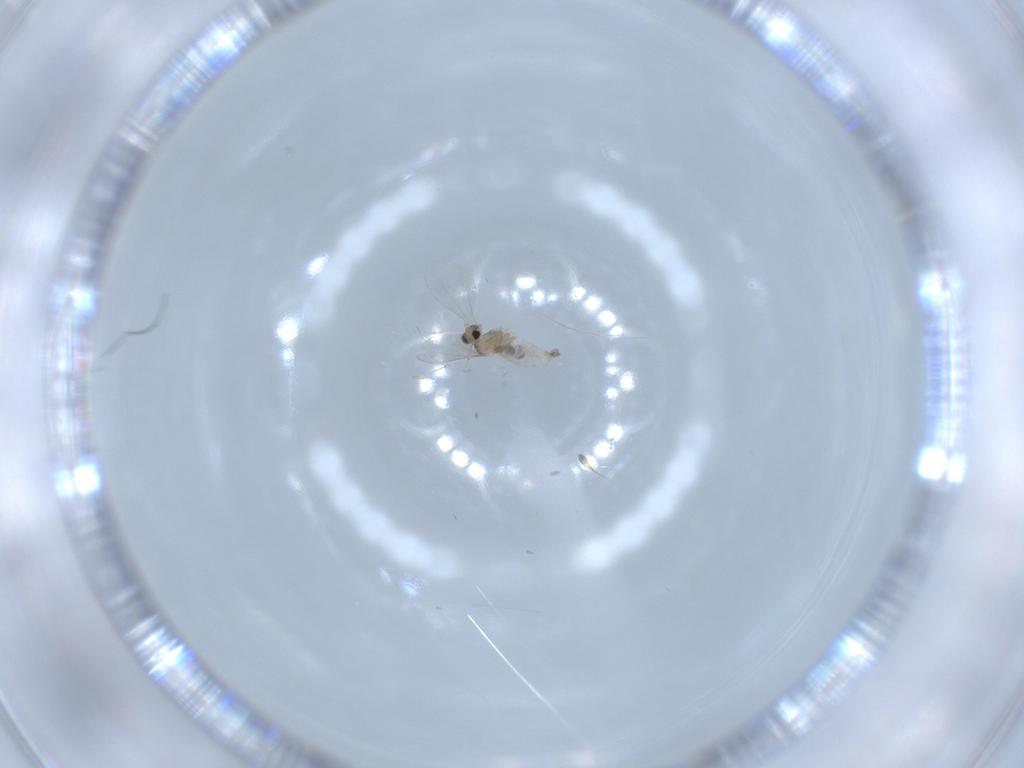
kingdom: Animalia
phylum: Arthropoda
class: Insecta
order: Diptera
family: Cecidomyiidae
